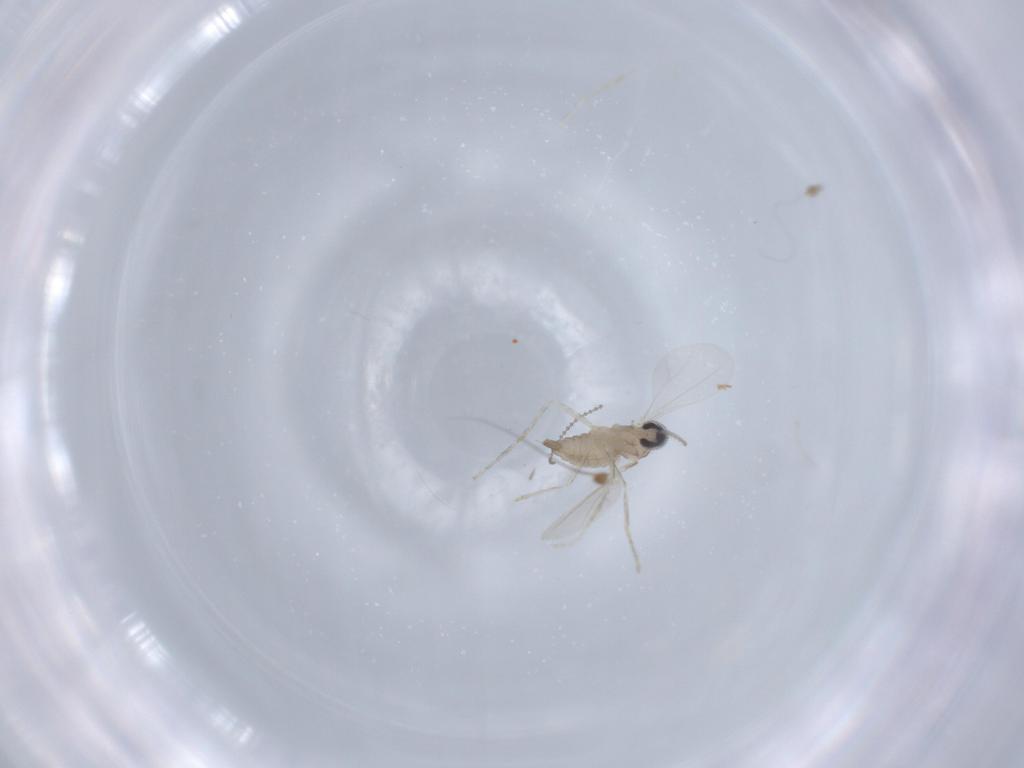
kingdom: Animalia
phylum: Arthropoda
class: Insecta
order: Diptera
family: Cecidomyiidae
